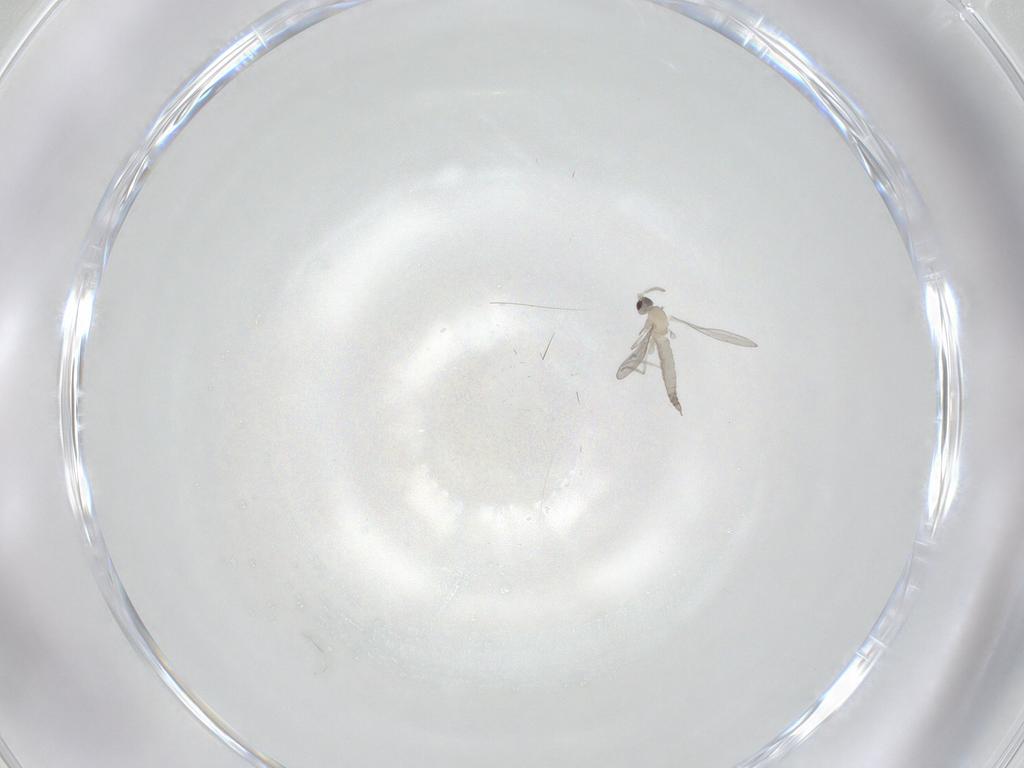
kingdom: Animalia
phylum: Arthropoda
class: Insecta
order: Diptera
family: Cecidomyiidae
